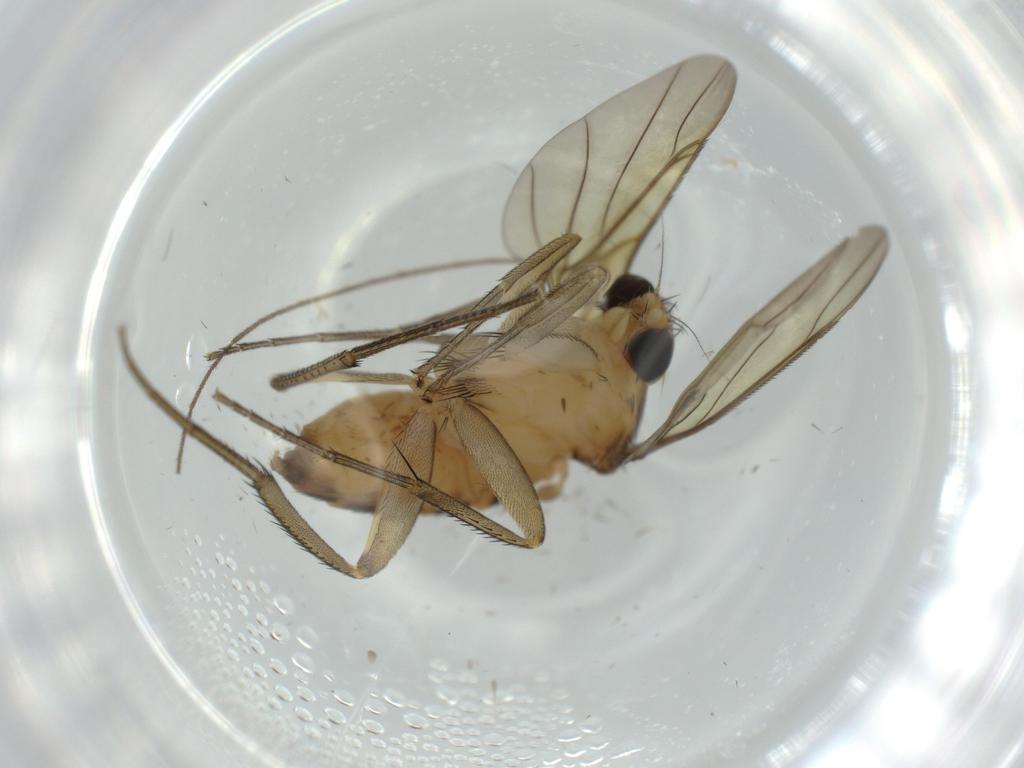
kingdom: Animalia
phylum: Arthropoda
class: Insecta
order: Diptera
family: Phoridae
